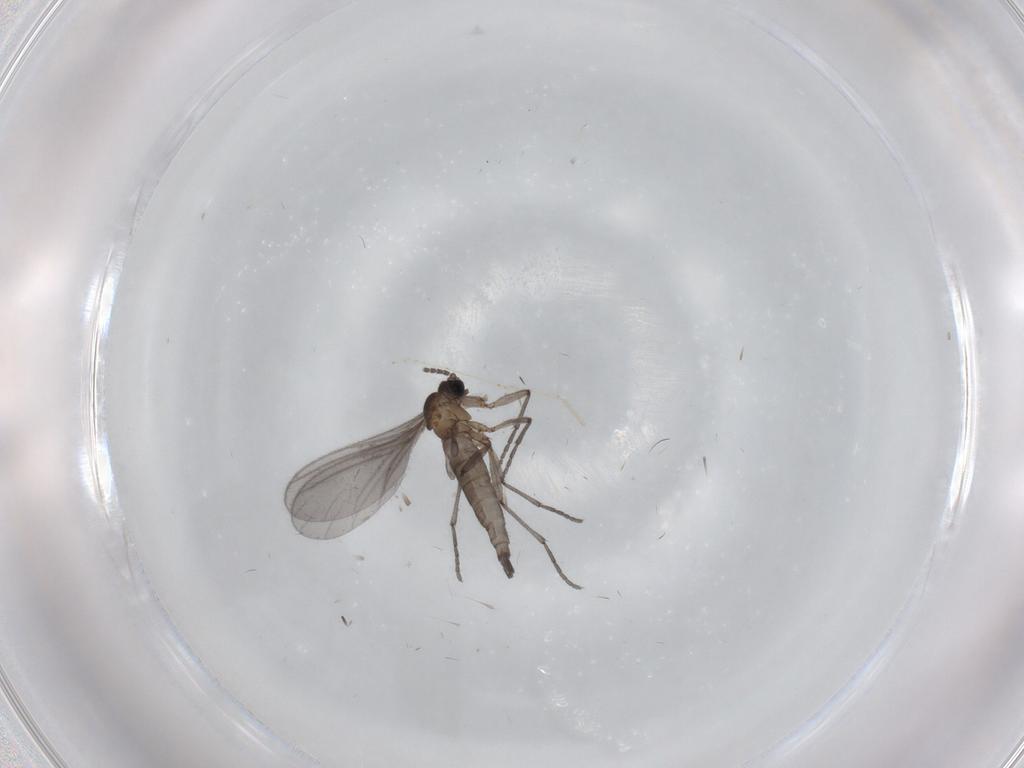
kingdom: Animalia
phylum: Arthropoda
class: Insecta
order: Diptera
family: Sciaridae
